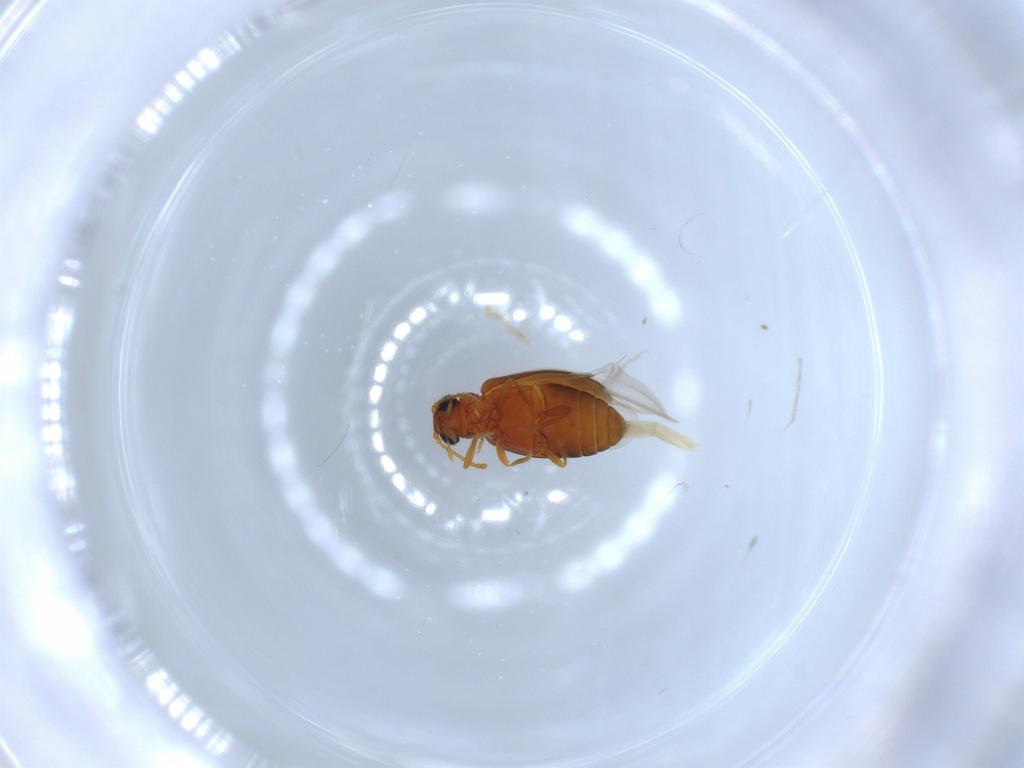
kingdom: Animalia
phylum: Arthropoda
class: Insecta
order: Coleoptera
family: Aderidae
